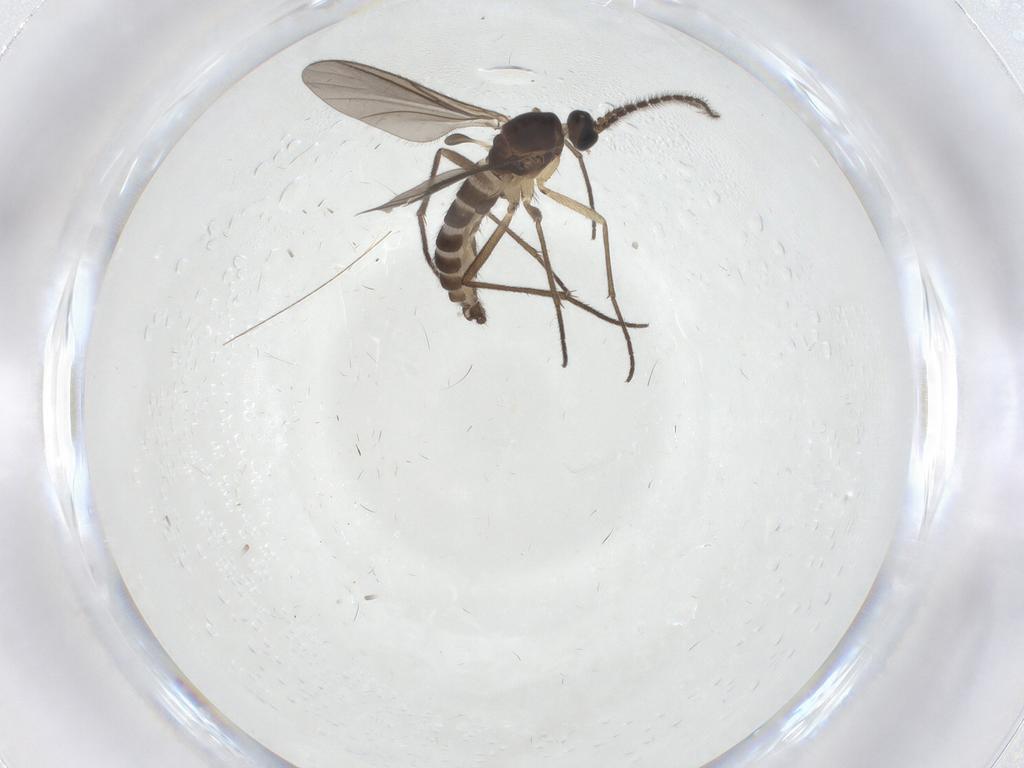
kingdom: Animalia
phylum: Arthropoda
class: Insecta
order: Diptera
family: Sciaridae
